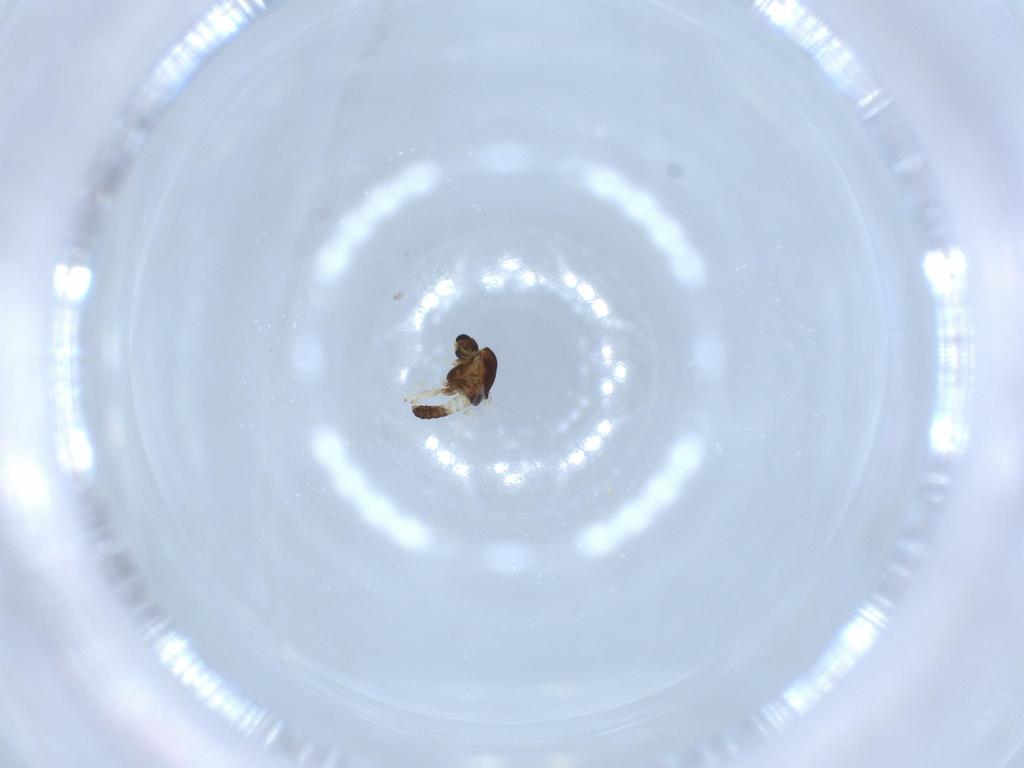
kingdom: Animalia
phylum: Arthropoda
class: Insecta
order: Diptera
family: Chironomidae
